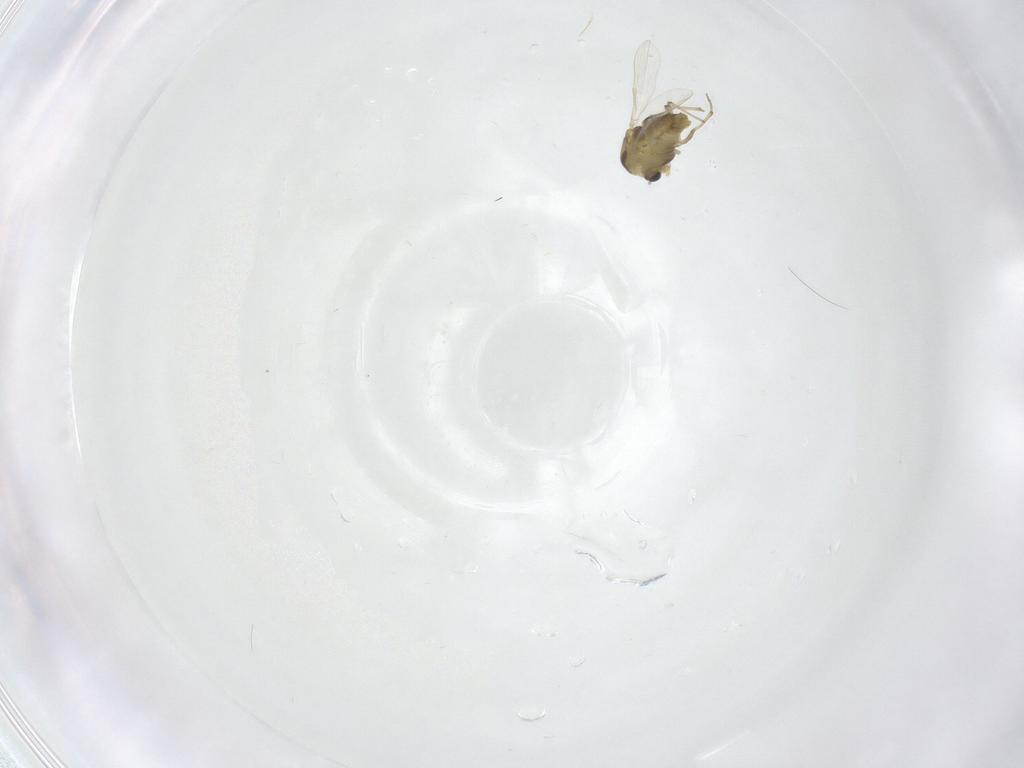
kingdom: Animalia
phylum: Arthropoda
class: Insecta
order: Diptera
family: Chironomidae
